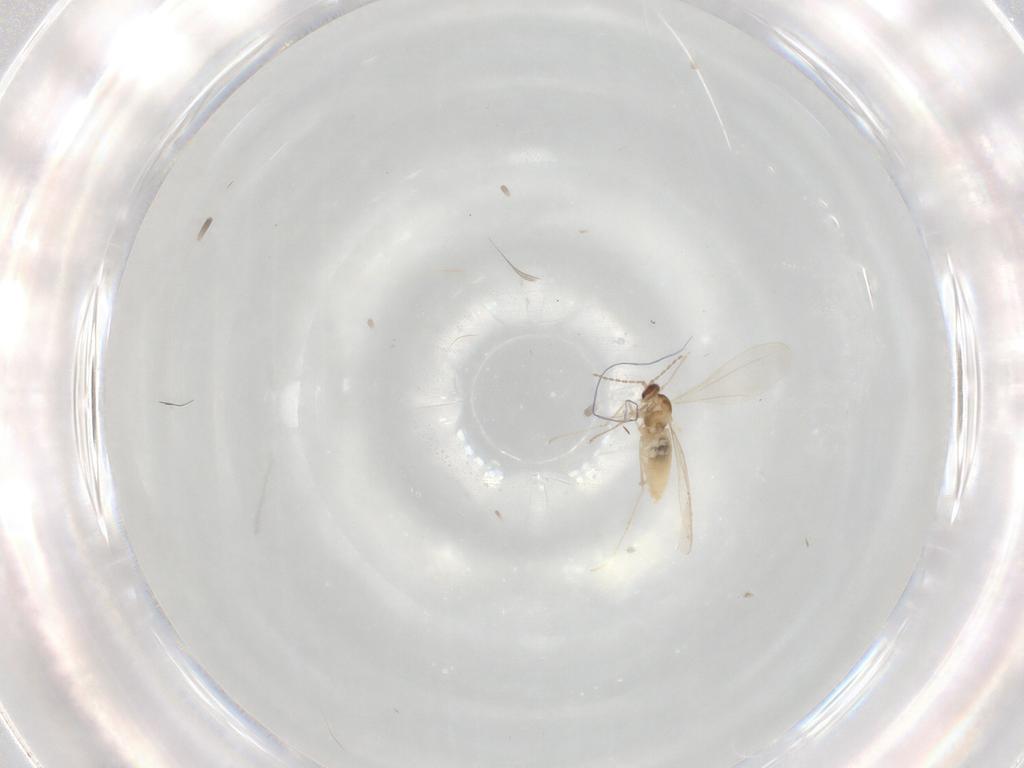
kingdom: Animalia
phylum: Arthropoda
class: Insecta
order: Diptera
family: Cecidomyiidae
